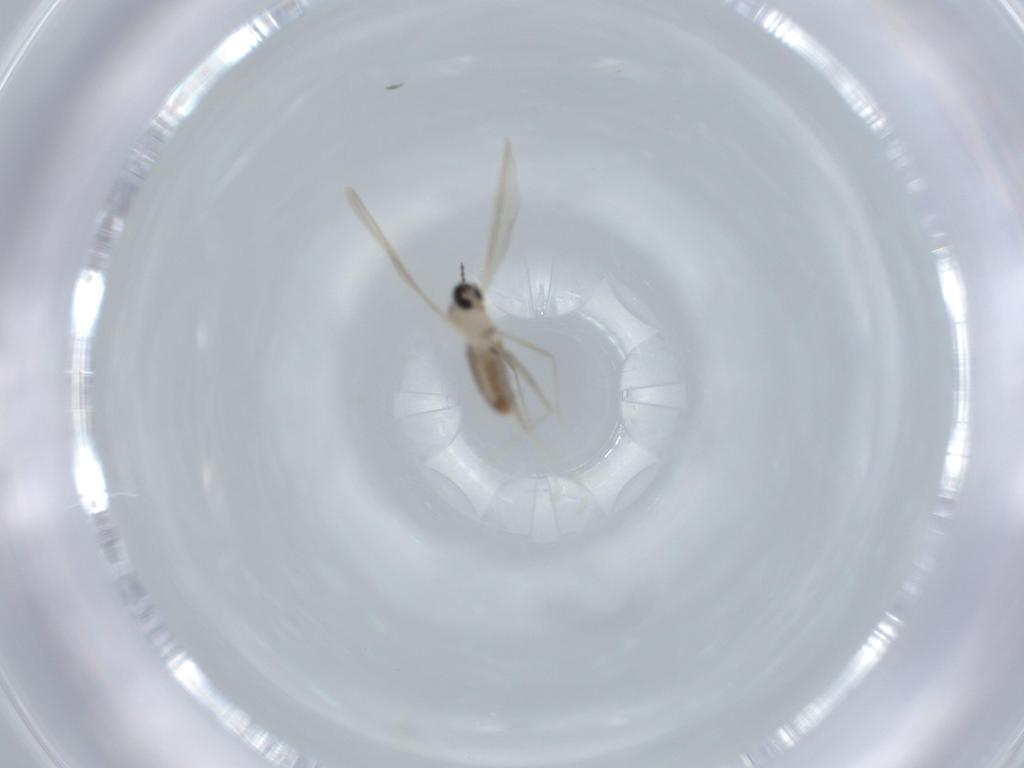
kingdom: Animalia
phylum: Arthropoda
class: Insecta
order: Diptera
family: Cecidomyiidae
